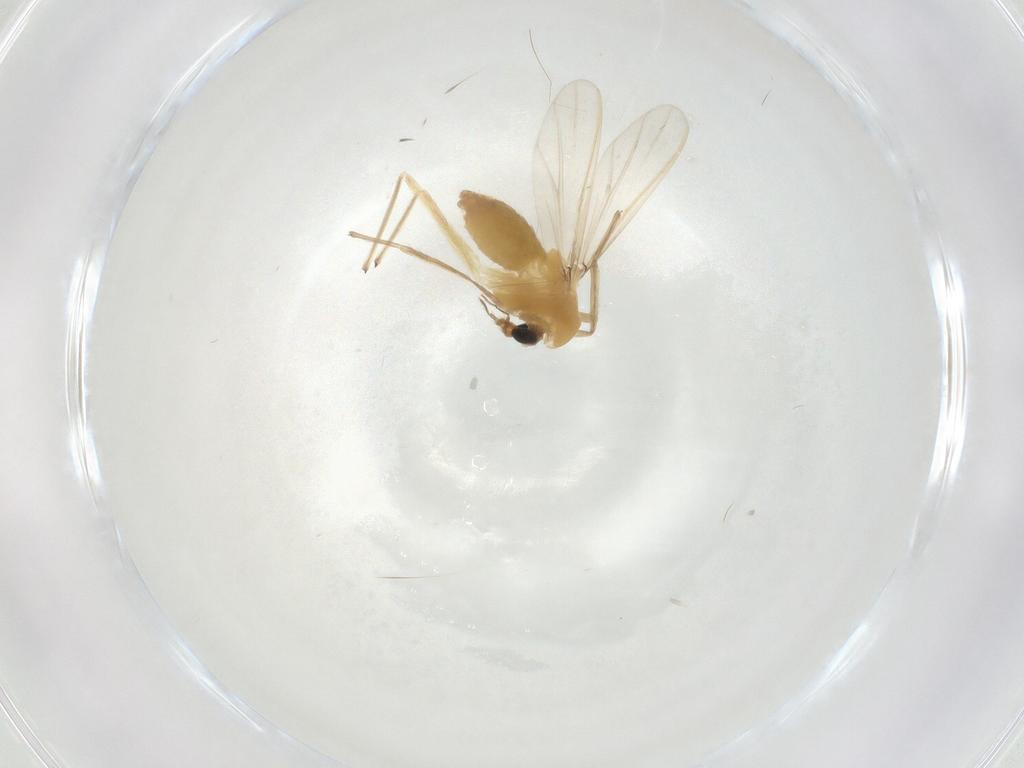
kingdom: Animalia
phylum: Arthropoda
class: Insecta
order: Diptera
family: Chironomidae
